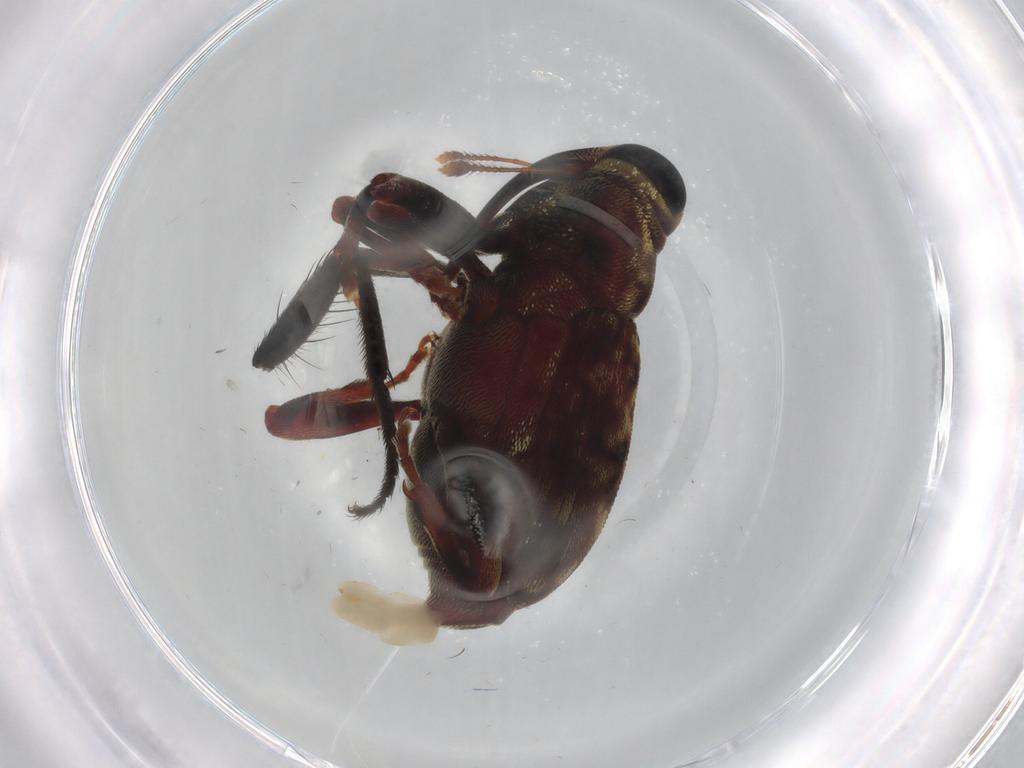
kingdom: Animalia
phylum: Arthropoda
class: Insecta
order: Coleoptera
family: Curculionidae
